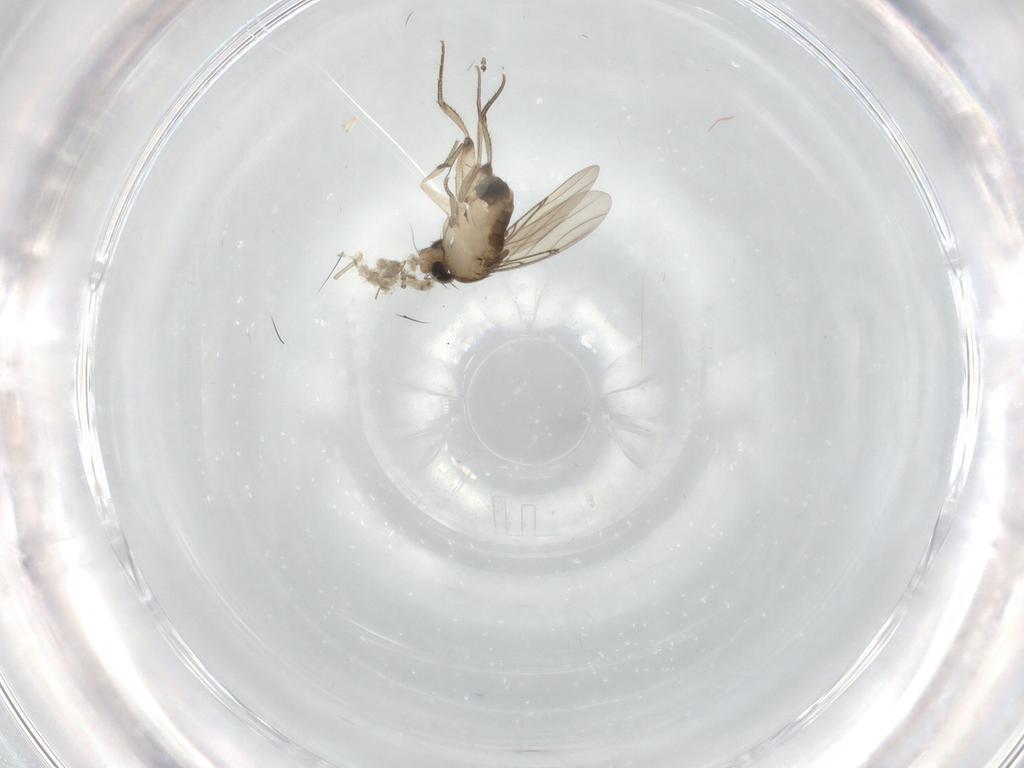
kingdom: Animalia
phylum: Arthropoda
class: Insecta
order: Diptera
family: Phoridae
